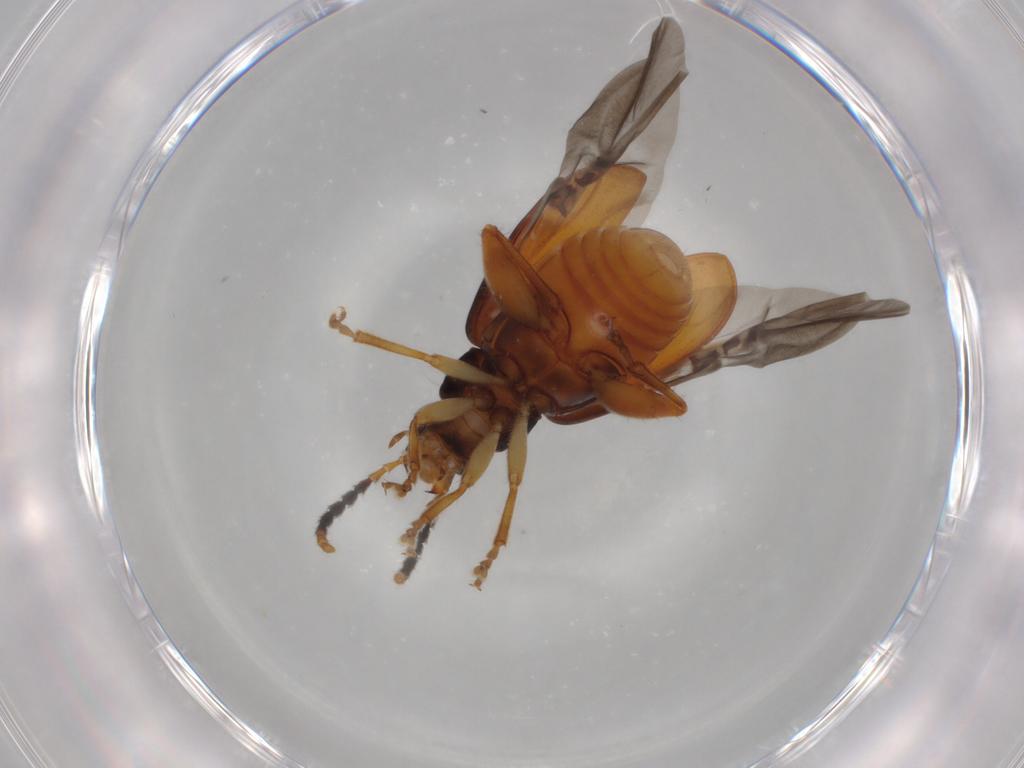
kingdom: Animalia
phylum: Arthropoda
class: Insecta
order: Coleoptera
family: Chrysomelidae
